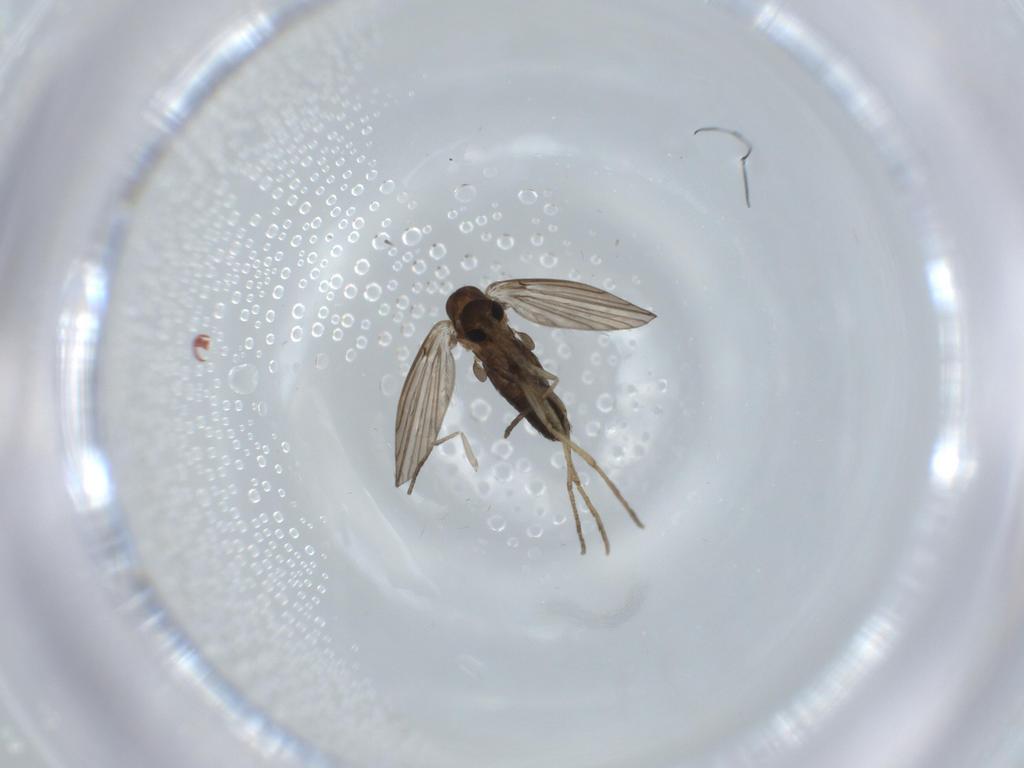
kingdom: Animalia
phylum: Arthropoda
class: Insecta
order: Diptera
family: Psychodidae
